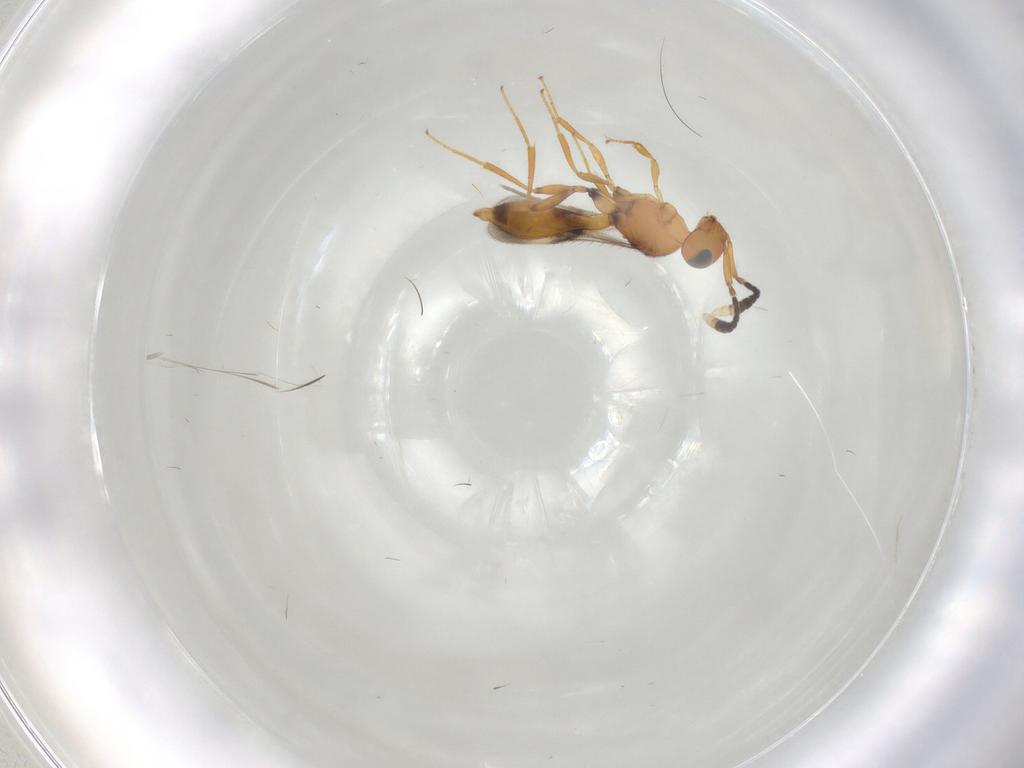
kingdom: Animalia
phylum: Arthropoda
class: Insecta
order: Hymenoptera
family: Scelionidae
